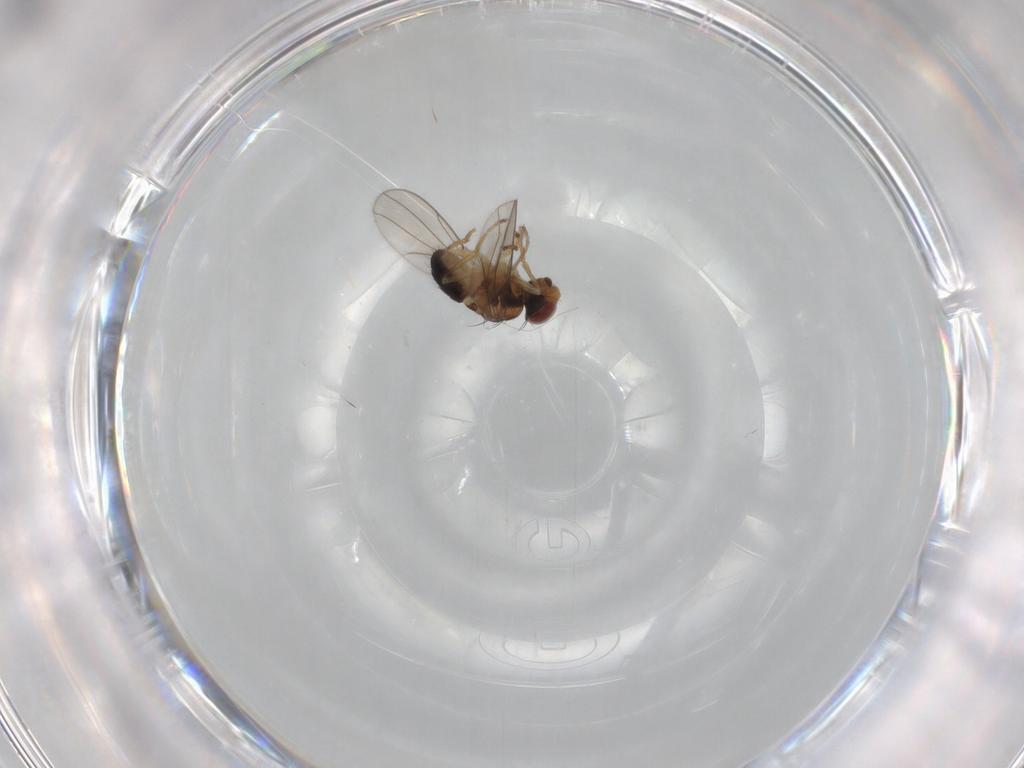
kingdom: Animalia
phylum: Arthropoda
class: Insecta
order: Diptera
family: Ephydridae
